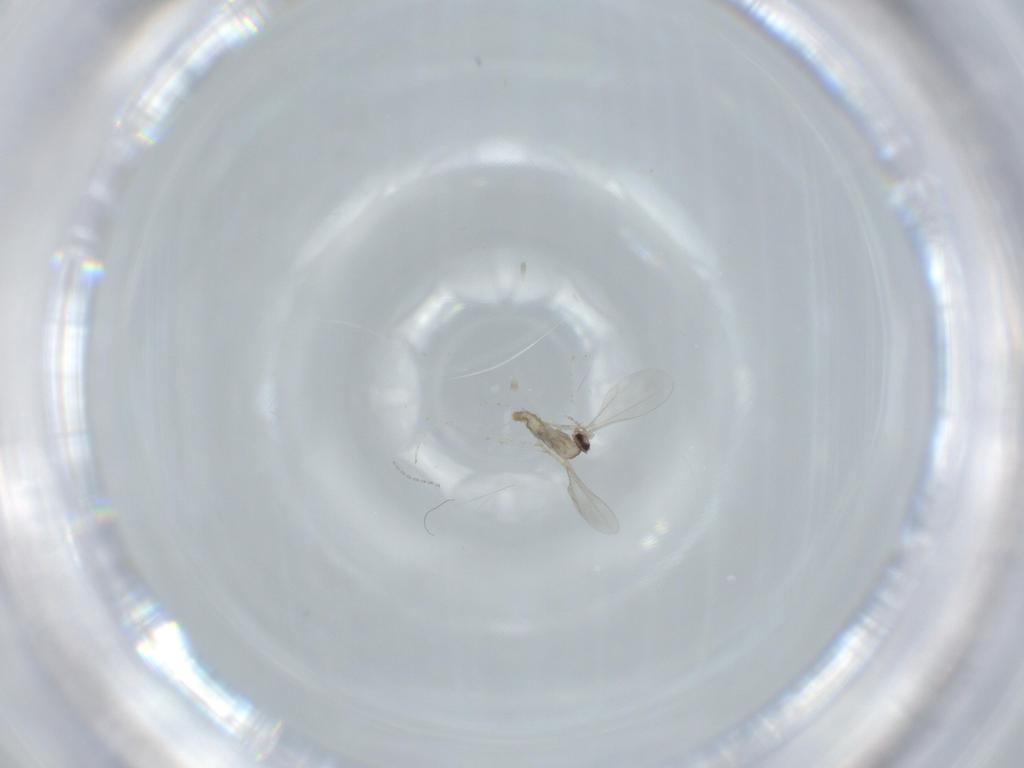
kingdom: Animalia
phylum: Arthropoda
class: Insecta
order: Diptera
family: Cecidomyiidae
